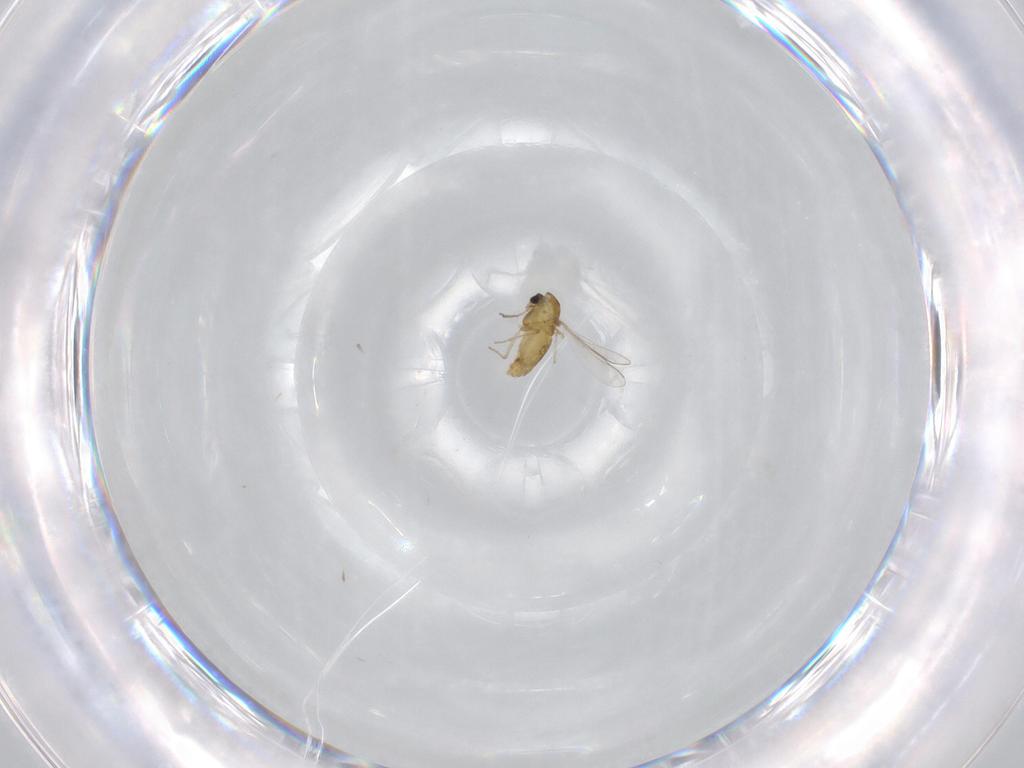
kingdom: Animalia
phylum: Arthropoda
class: Insecta
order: Diptera
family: Chironomidae
